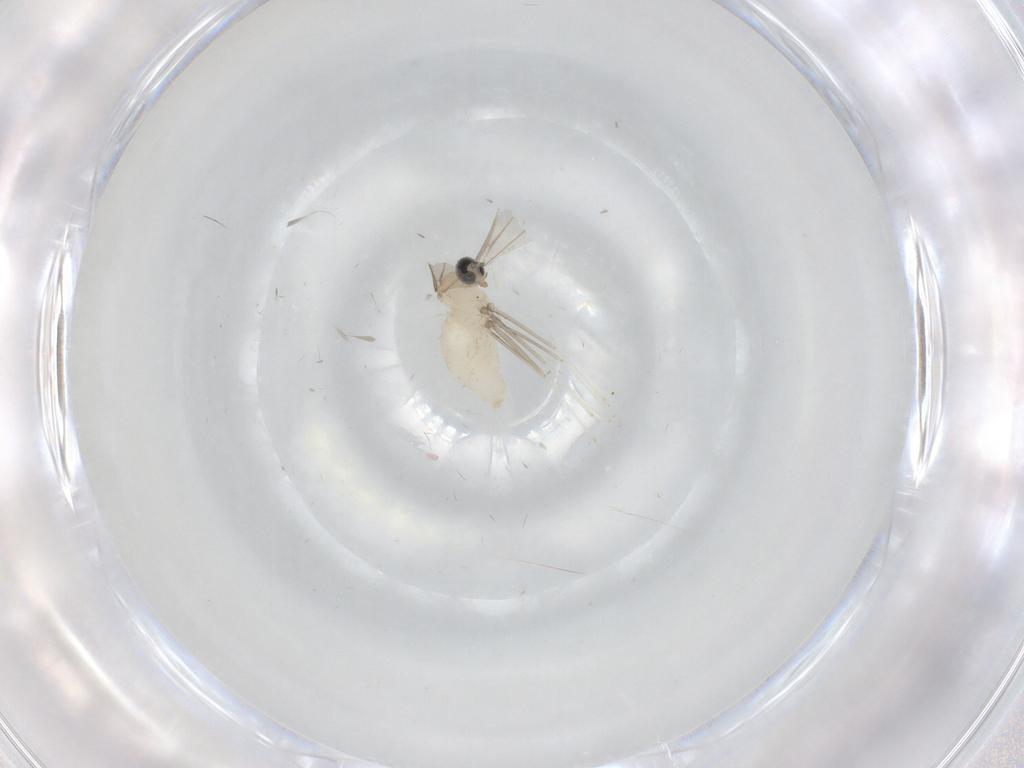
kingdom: Animalia
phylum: Arthropoda
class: Insecta
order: Diptera
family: Cecidomyiidae
